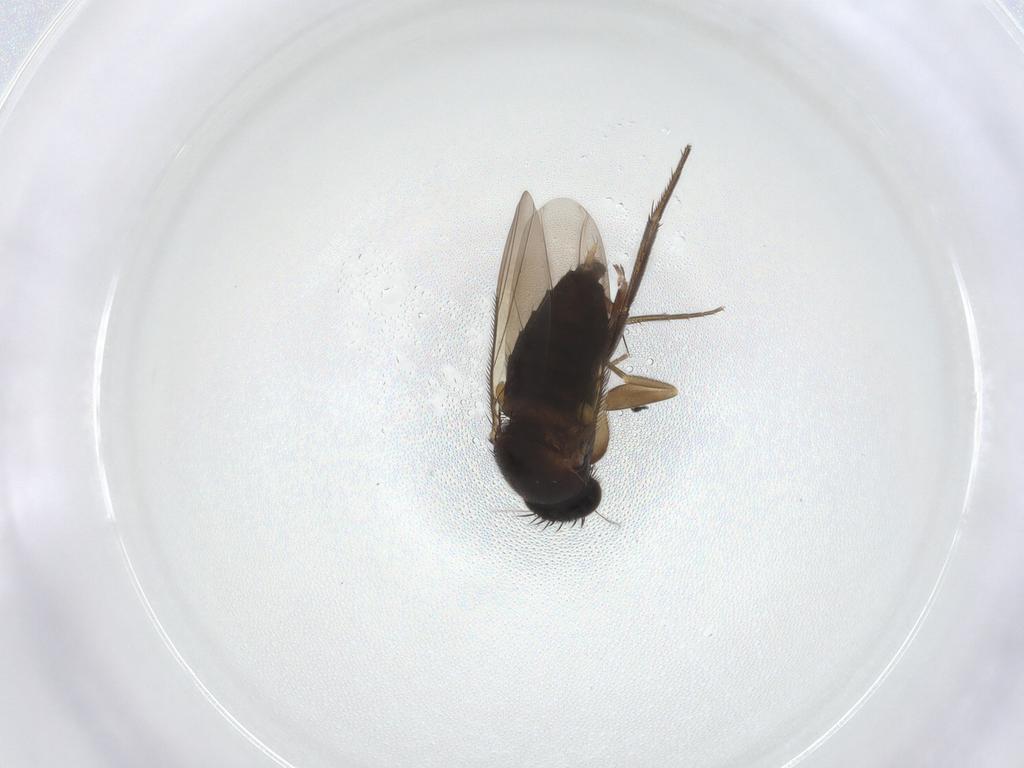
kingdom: Animalia
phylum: Arthropoda
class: Insecta
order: Diptera
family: Phoridae
